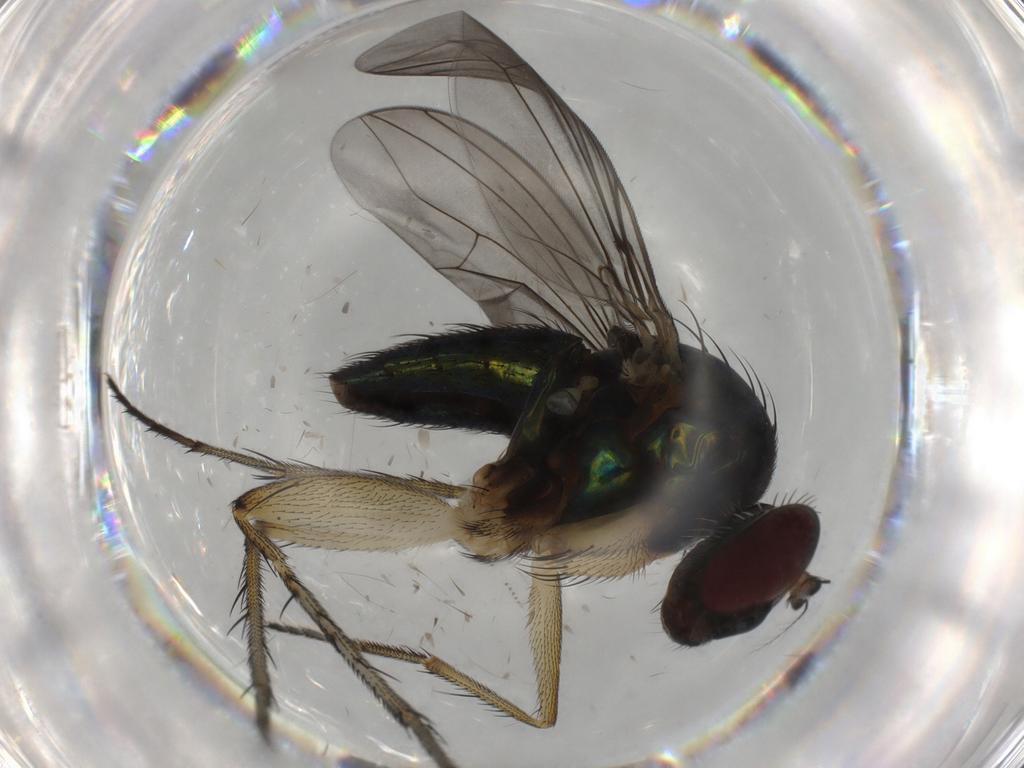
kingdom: Animalia
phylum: Arthropoda
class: Insecta
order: Diptera
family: Dolichopodidae
